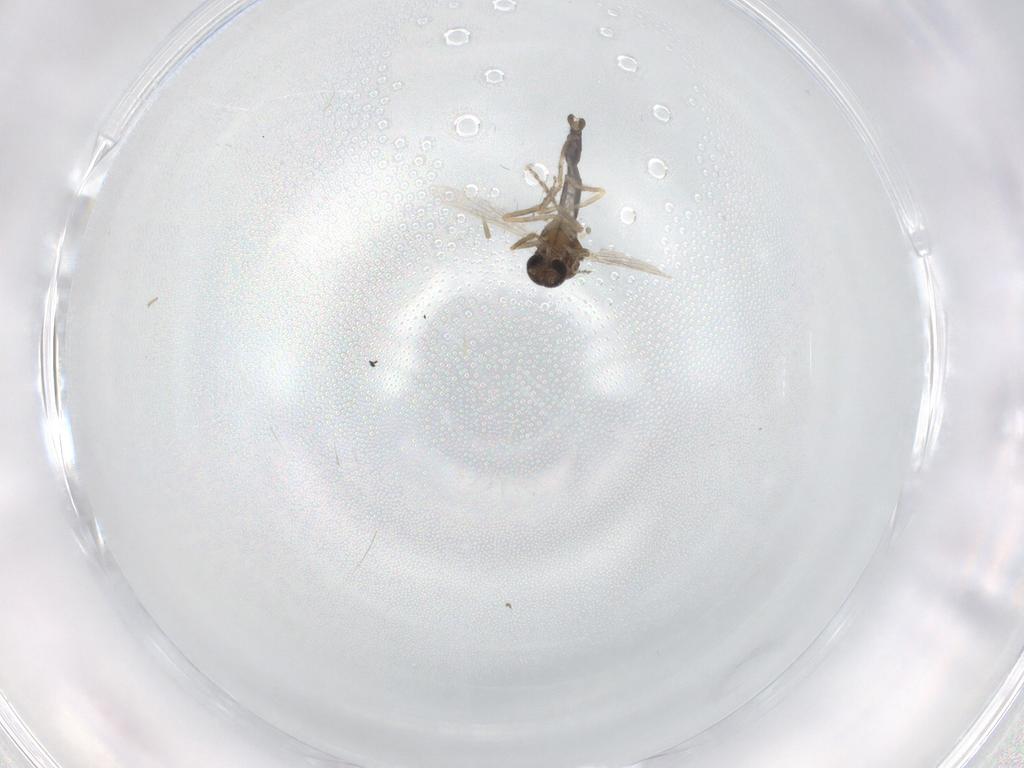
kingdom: Animalia
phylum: Arthropoda
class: Insecta
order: Diptera
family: Ceratopogonidae
